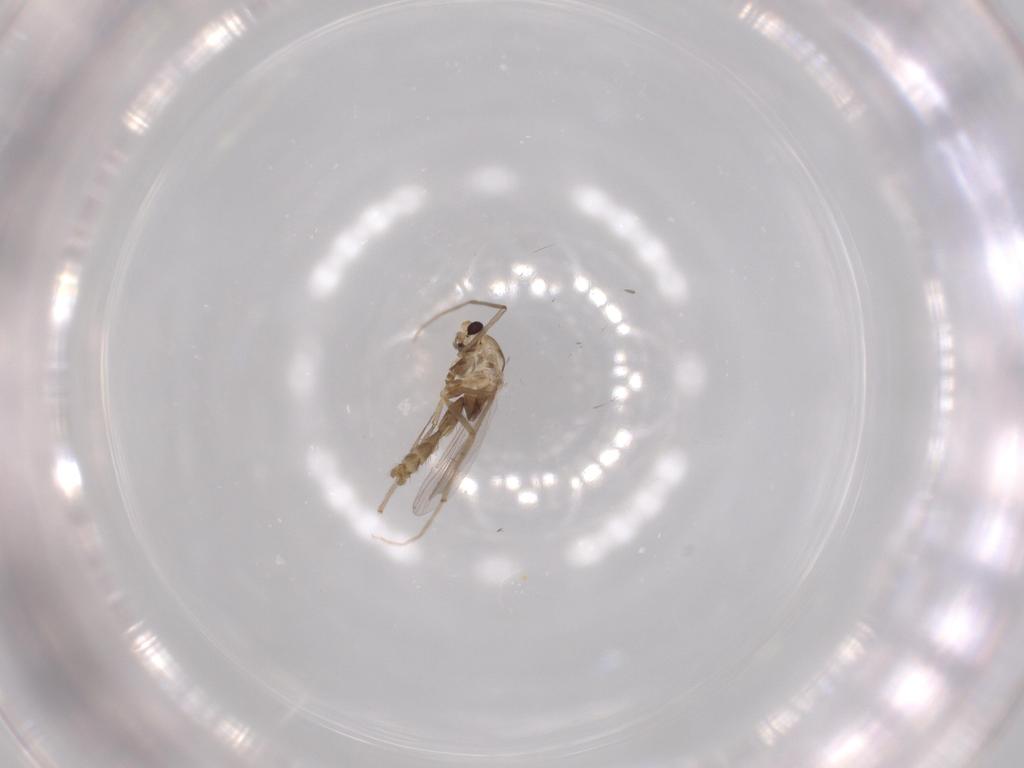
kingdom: Animalia
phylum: Arthropoda
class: Insecta
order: Diptera
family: Chironomidae
